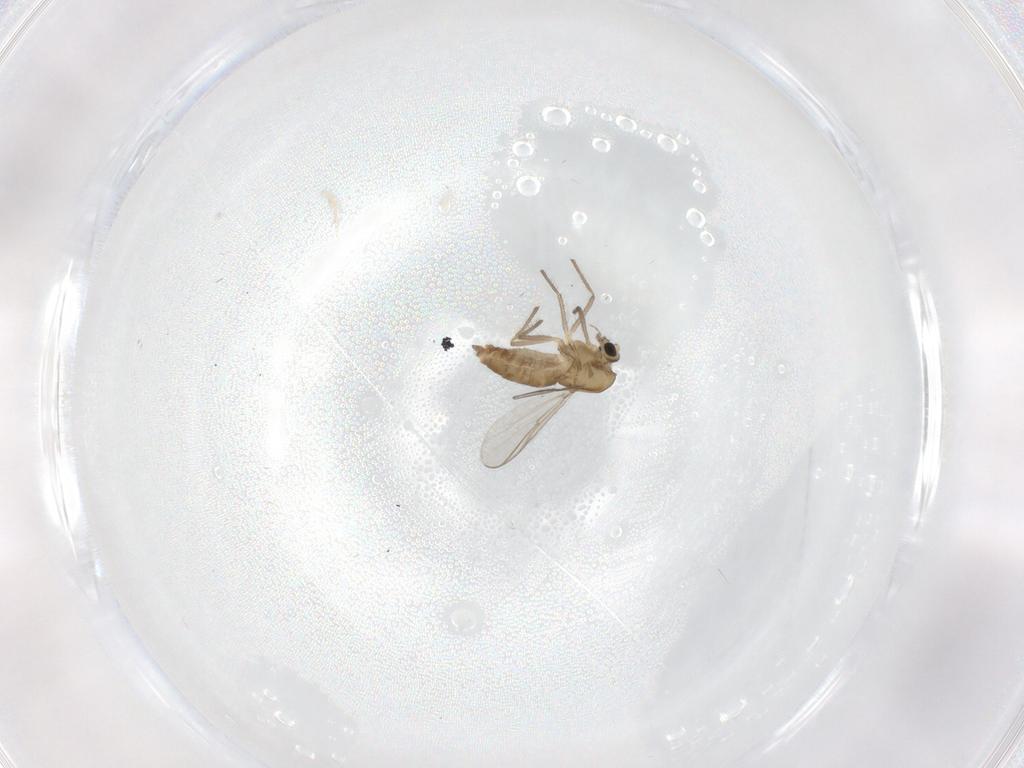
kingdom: Animalia
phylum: Arthropoda
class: Insecta
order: Diptera
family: Chironomidae
